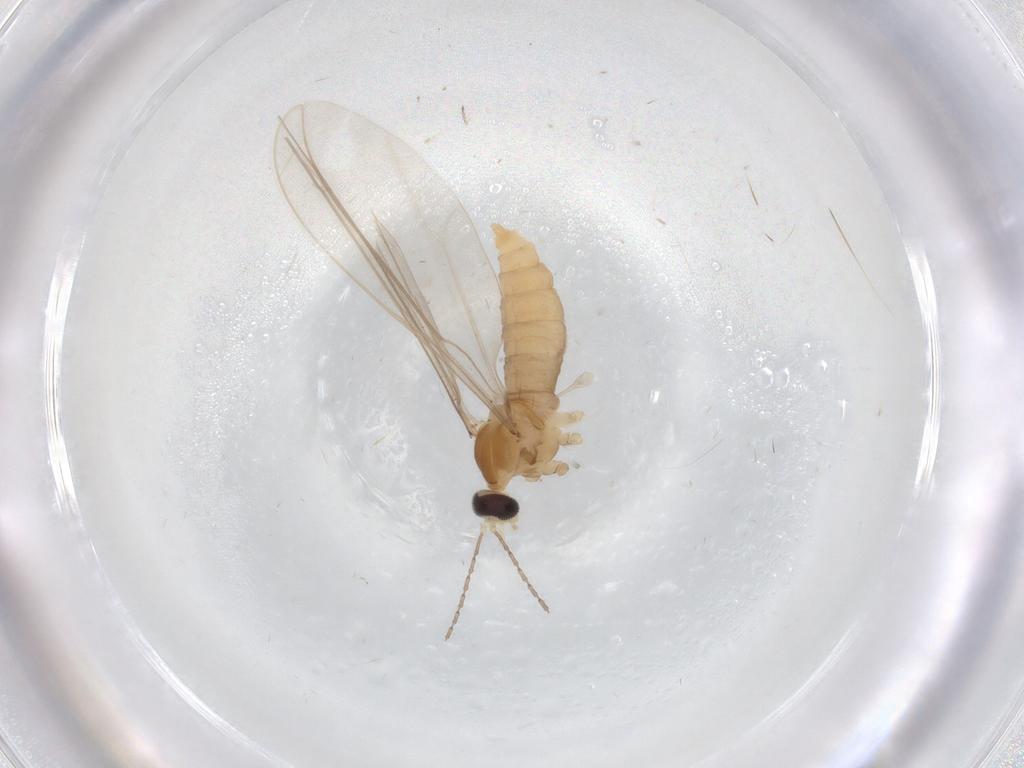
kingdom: Animalia
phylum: Arthropoda
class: Insecta
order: Diptera
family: Cecidomyiidae
